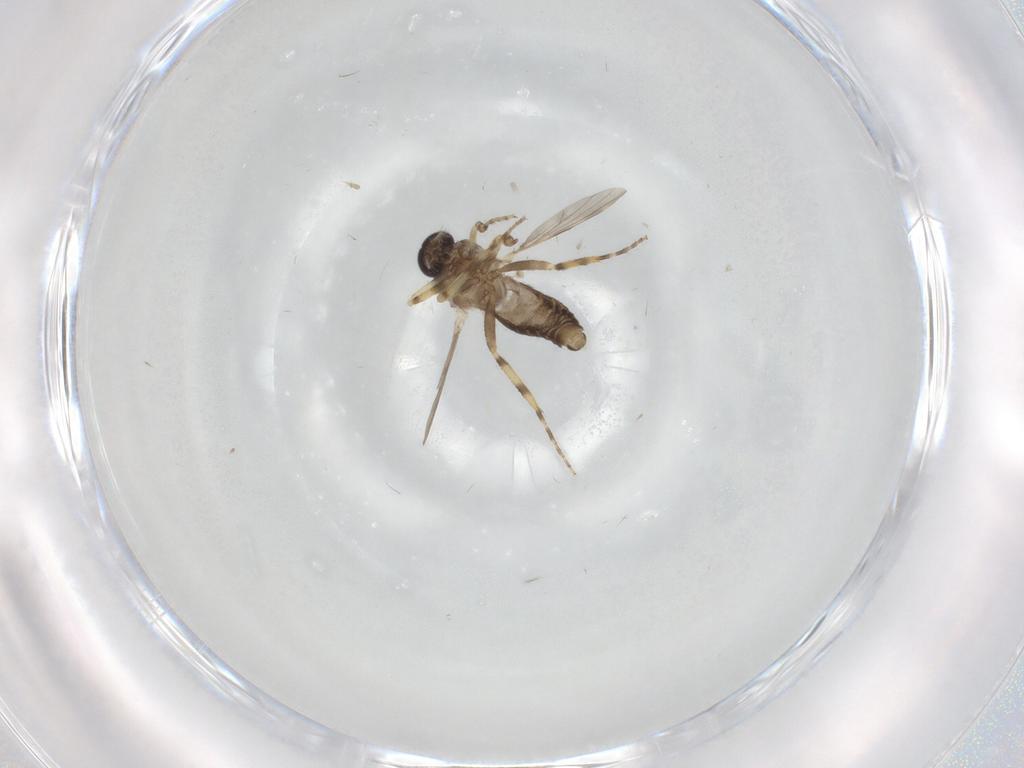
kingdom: Animalia
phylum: Arthropoda
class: Insecta
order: Diptera
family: Ceratopogonidae
